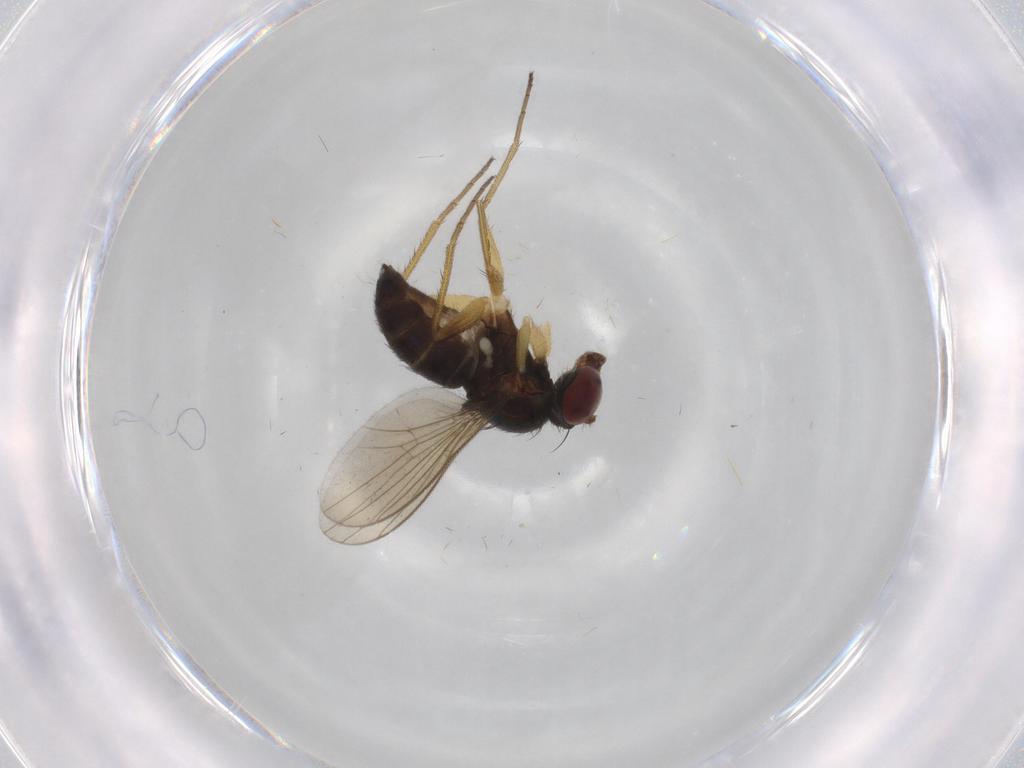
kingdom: Animalia
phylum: Arthropoda
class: Insecta
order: Diptera
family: Dolichopodidae
